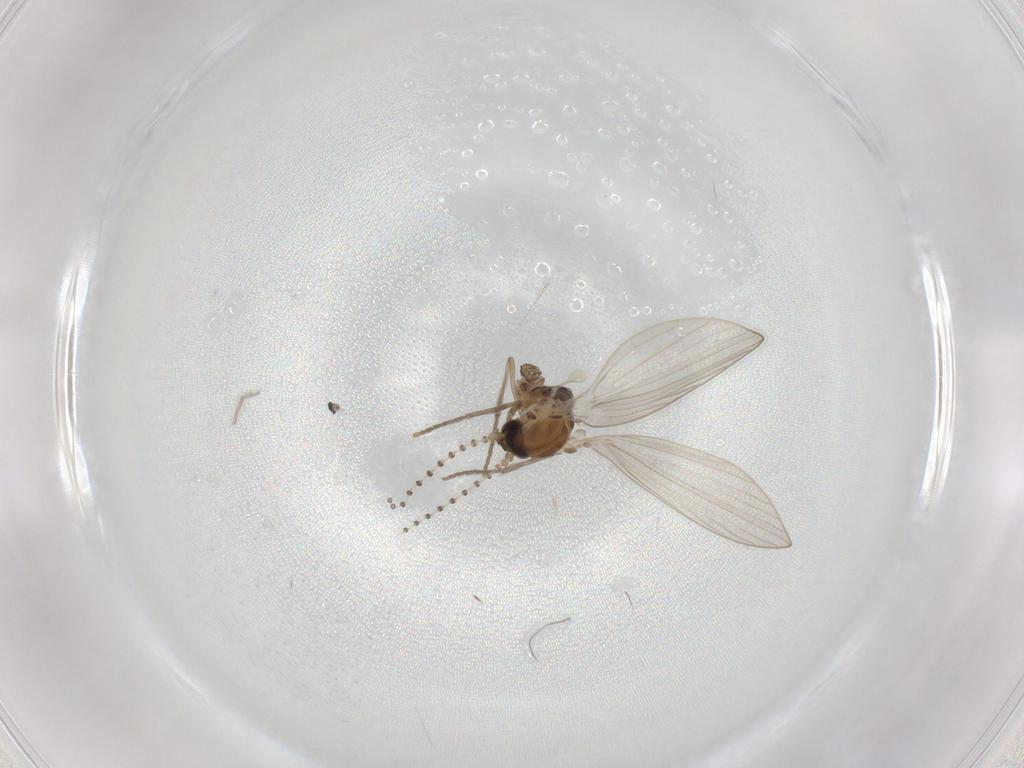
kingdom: Animalia
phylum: Arthropoda
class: Insecta
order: Diptera
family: Psychodidae
